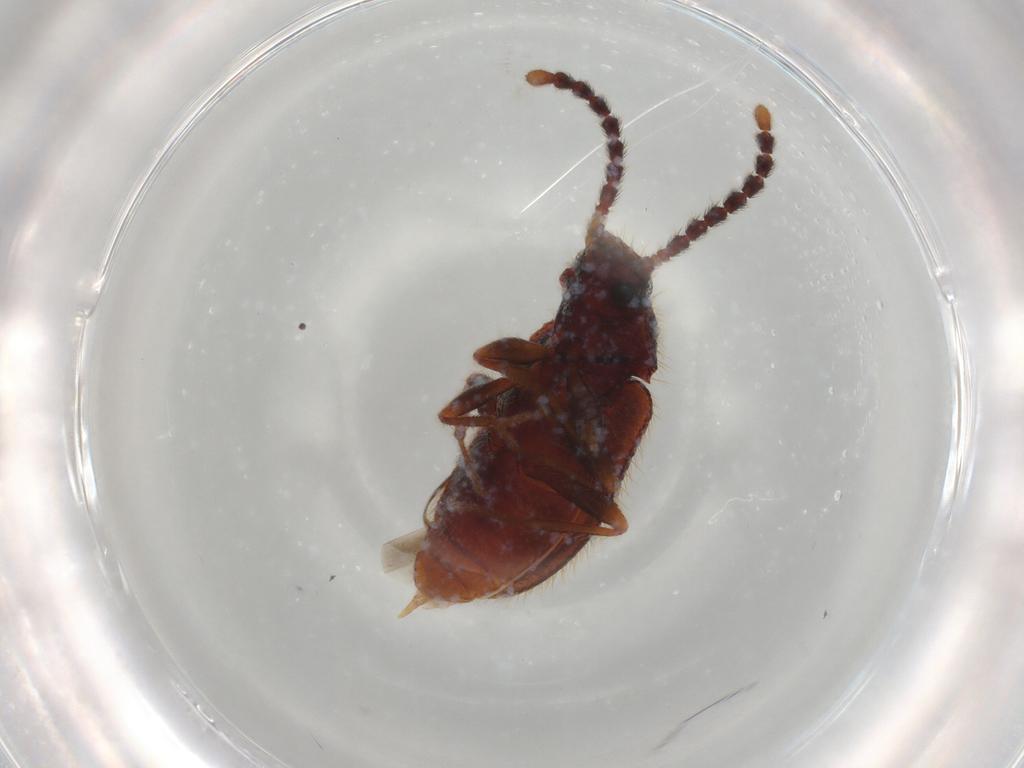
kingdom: Animalia
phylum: Arthropoda
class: Insecta
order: Coleoptera
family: Tenebrionidae
